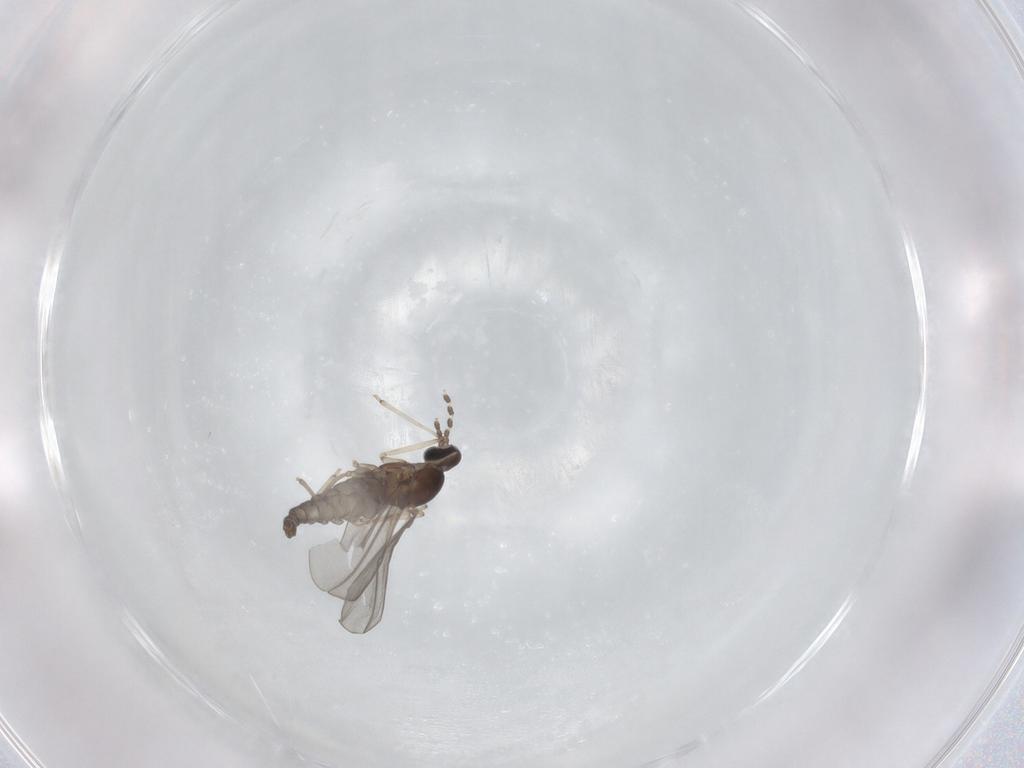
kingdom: Animalia
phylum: Arthropoda
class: Insecta
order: Diptera
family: Cecidomyiidae
